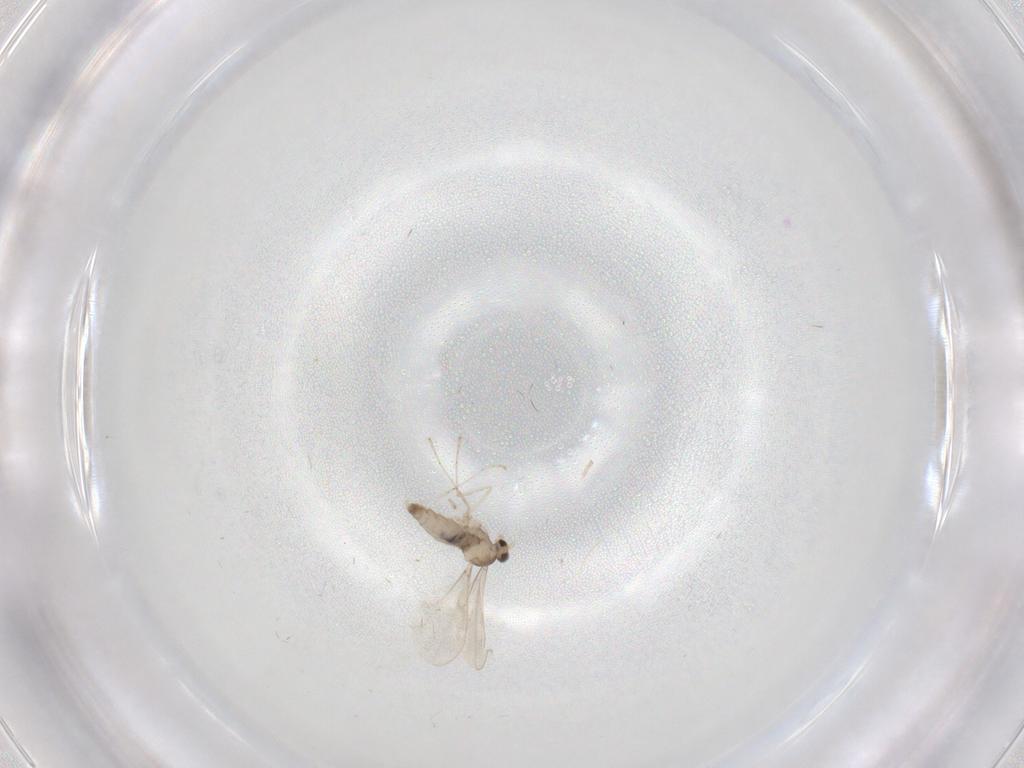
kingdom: Animalia
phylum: Arthropoda
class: Insecta
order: Diptera
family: Cecidomyiidae
